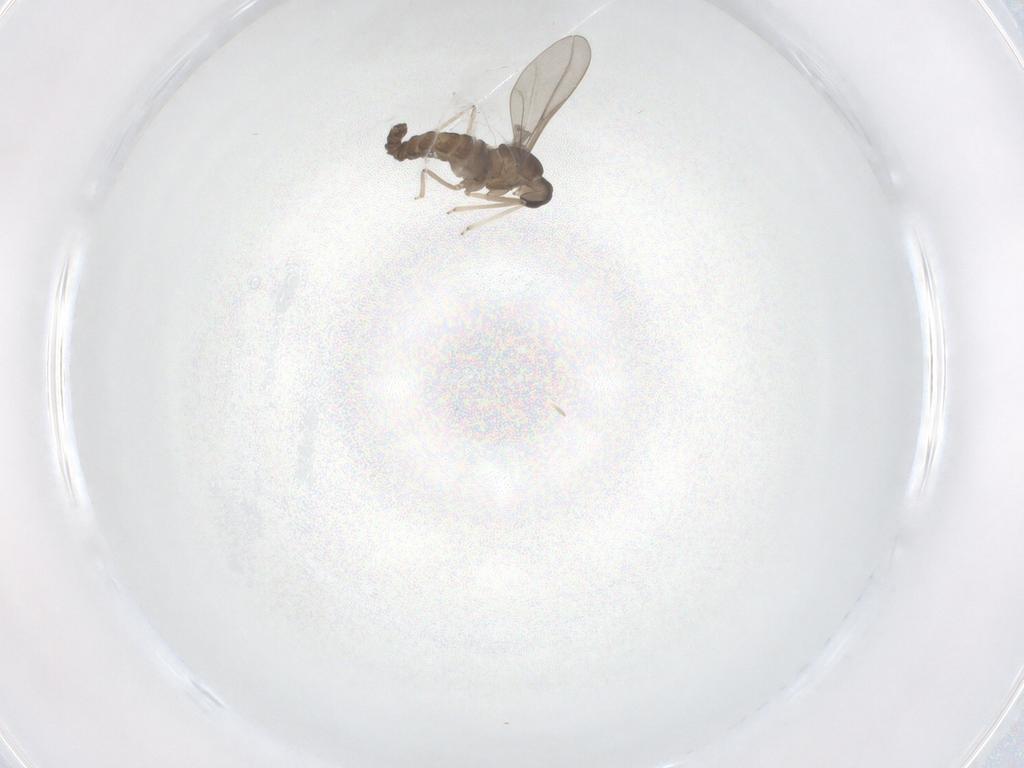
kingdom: Animalia
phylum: Arthropoda
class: Insecta
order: Diptera
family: Cecidomyiidae
